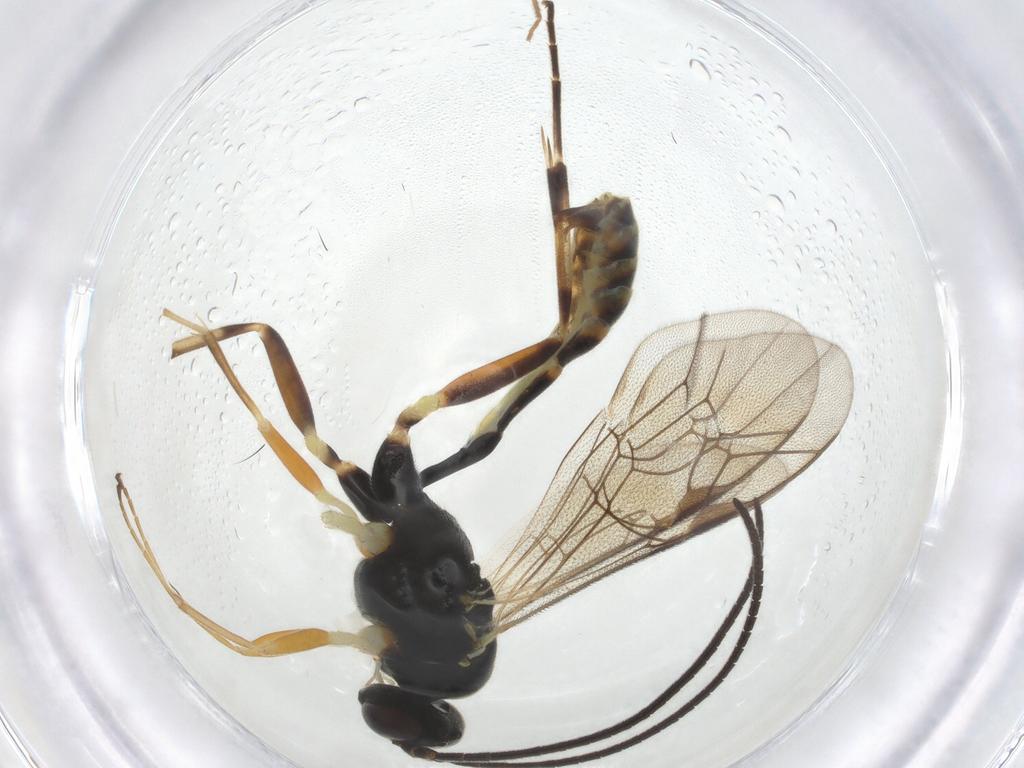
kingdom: Animalia
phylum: Arthropoda
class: Insecta
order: Hymenoptera
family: Ichneumonidae
